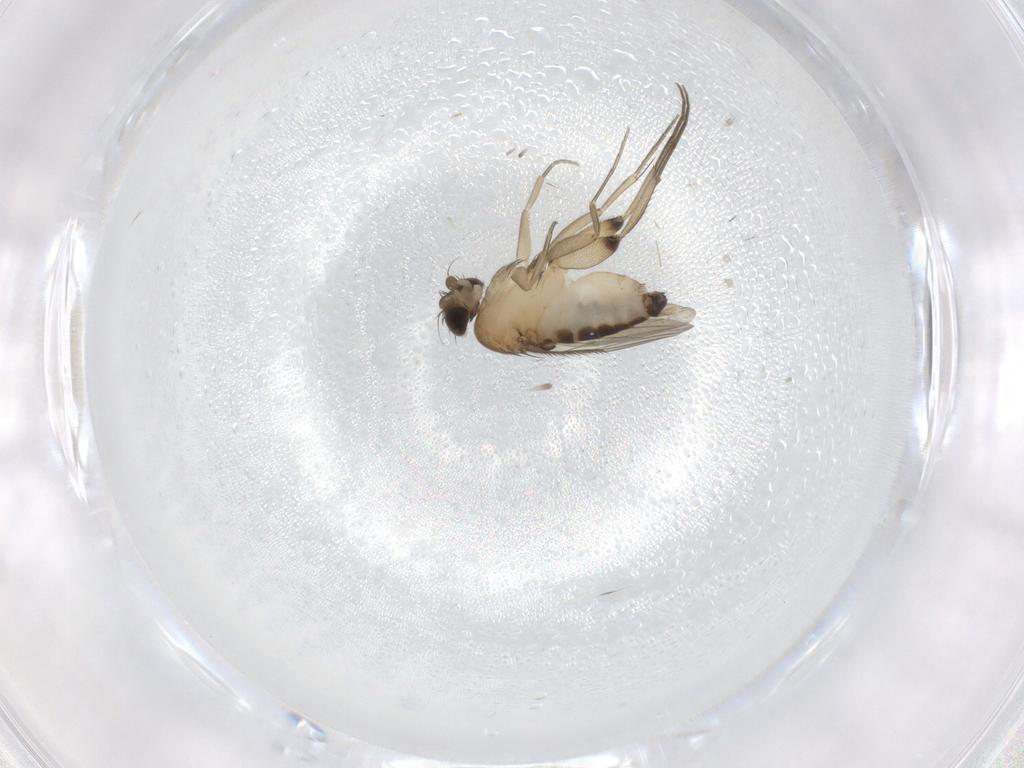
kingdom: Animalia
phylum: Arthropoda
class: Insecta
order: Diptera
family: Phoridae
